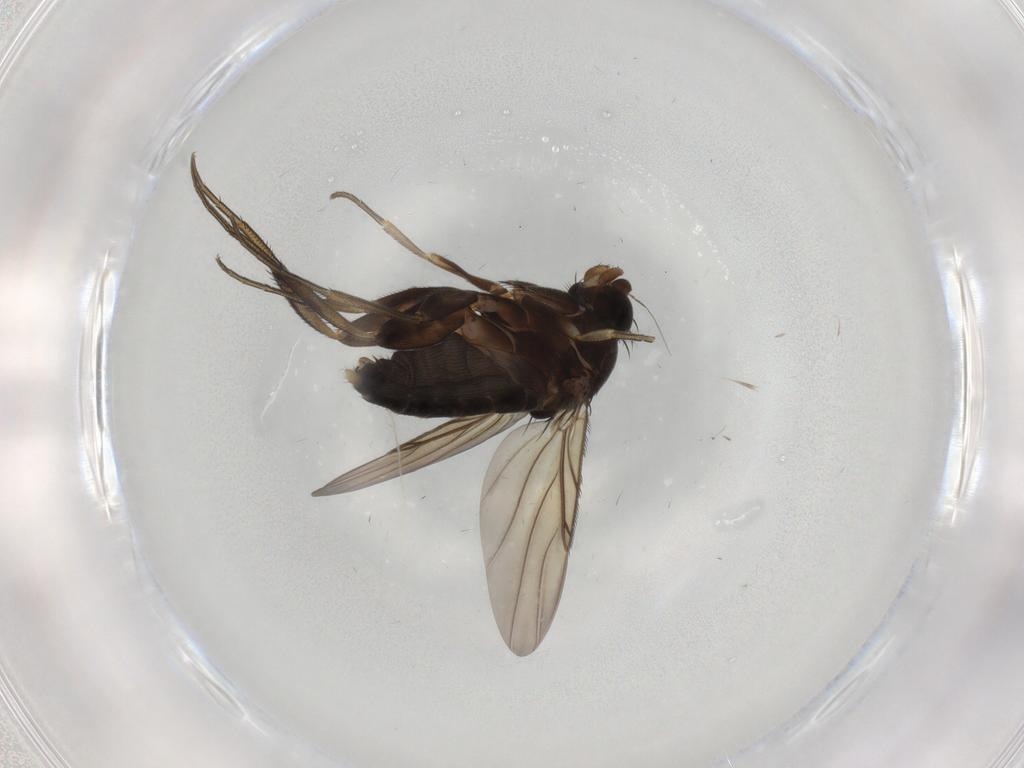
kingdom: Animalia
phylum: Arthropoda
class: Insecta
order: Diptera
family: Phoridae
